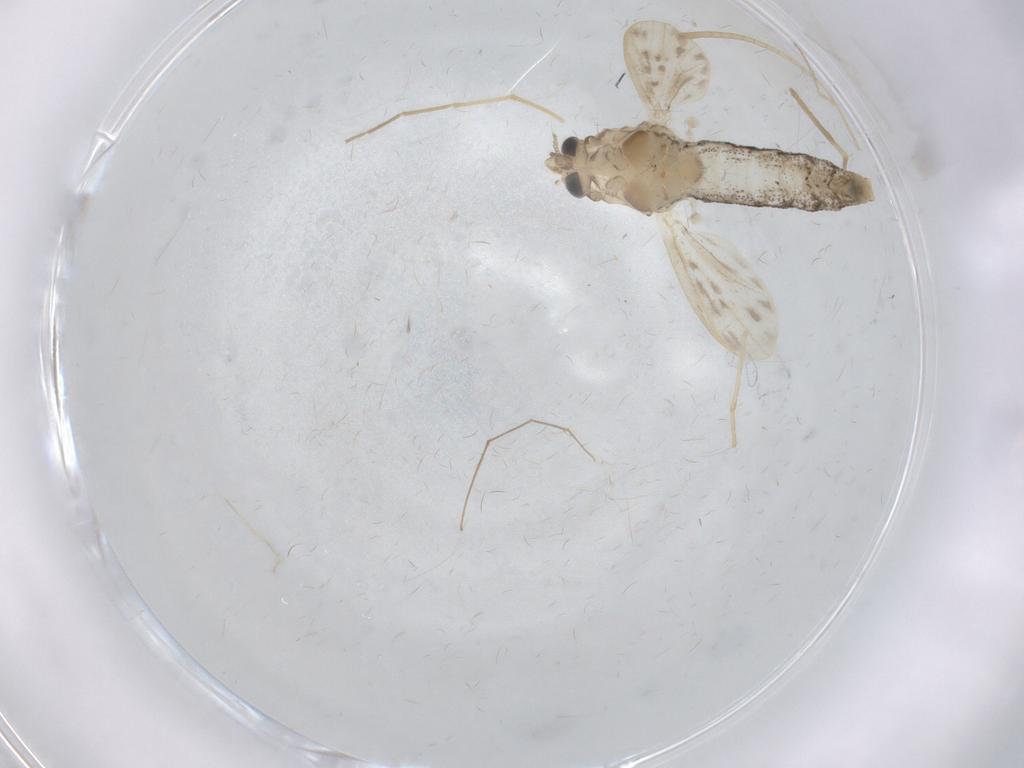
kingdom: Animalia
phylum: Arthropoda
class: Insecta
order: Diptera
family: Chaoboridae
